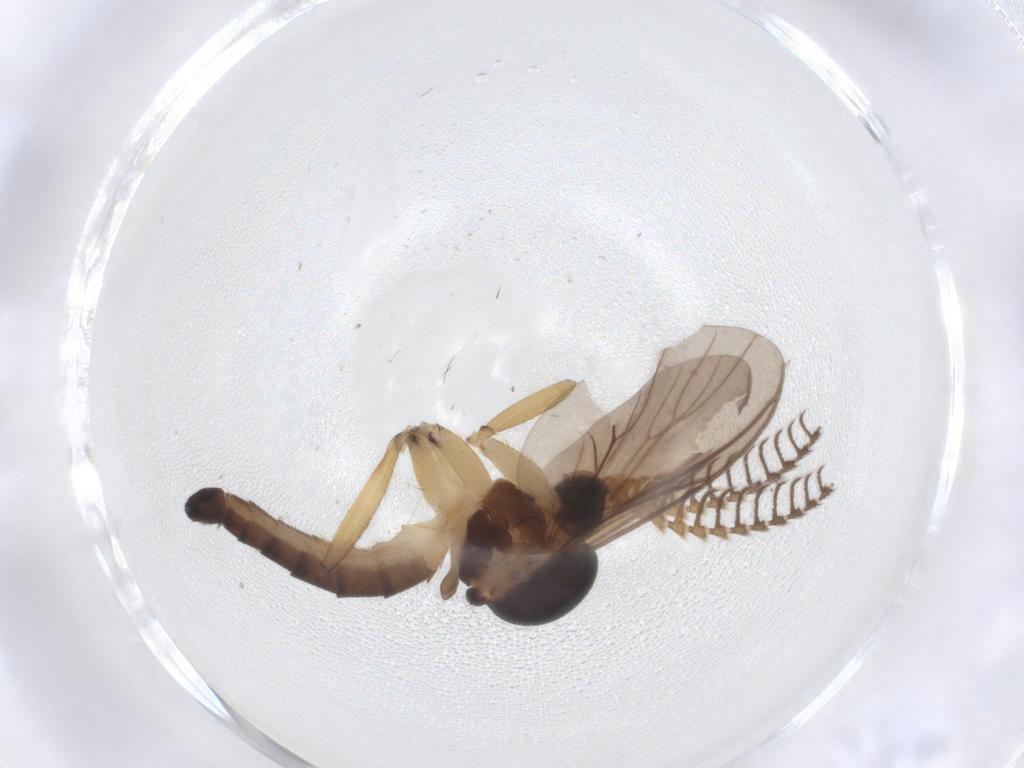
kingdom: Animalia
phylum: Arthropoda
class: Insecta
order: Diptera
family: Mycetophilidae
